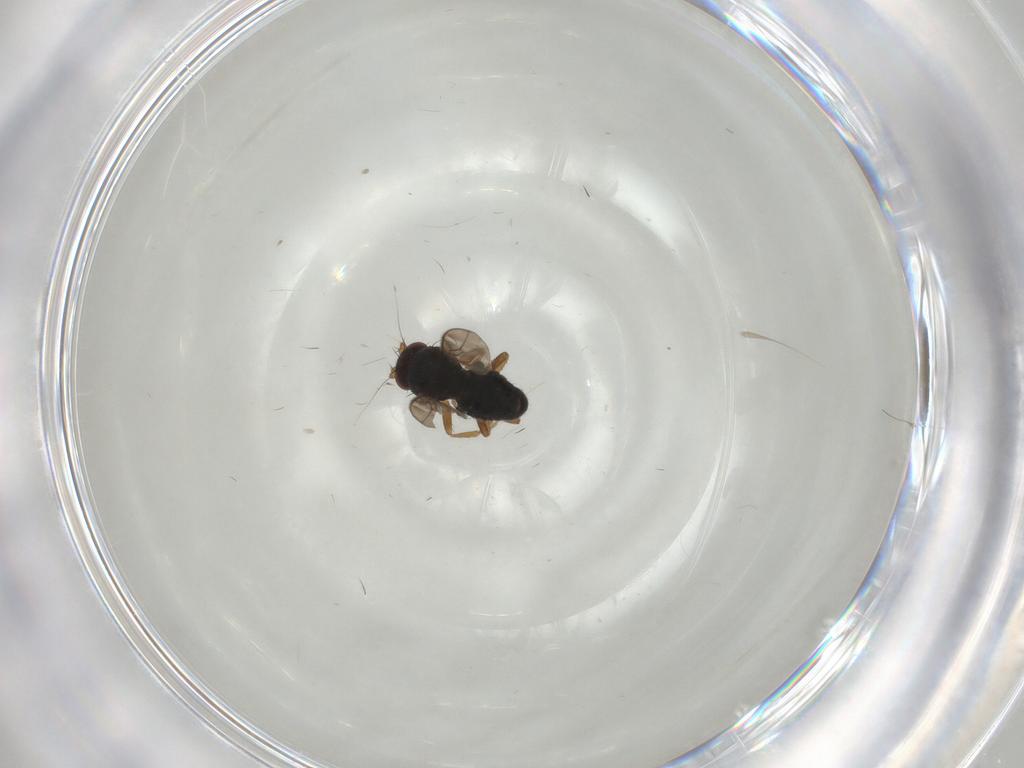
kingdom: Animalia
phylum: Arthropoda
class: Insecta
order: Diptera
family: Sphaeroceridae
